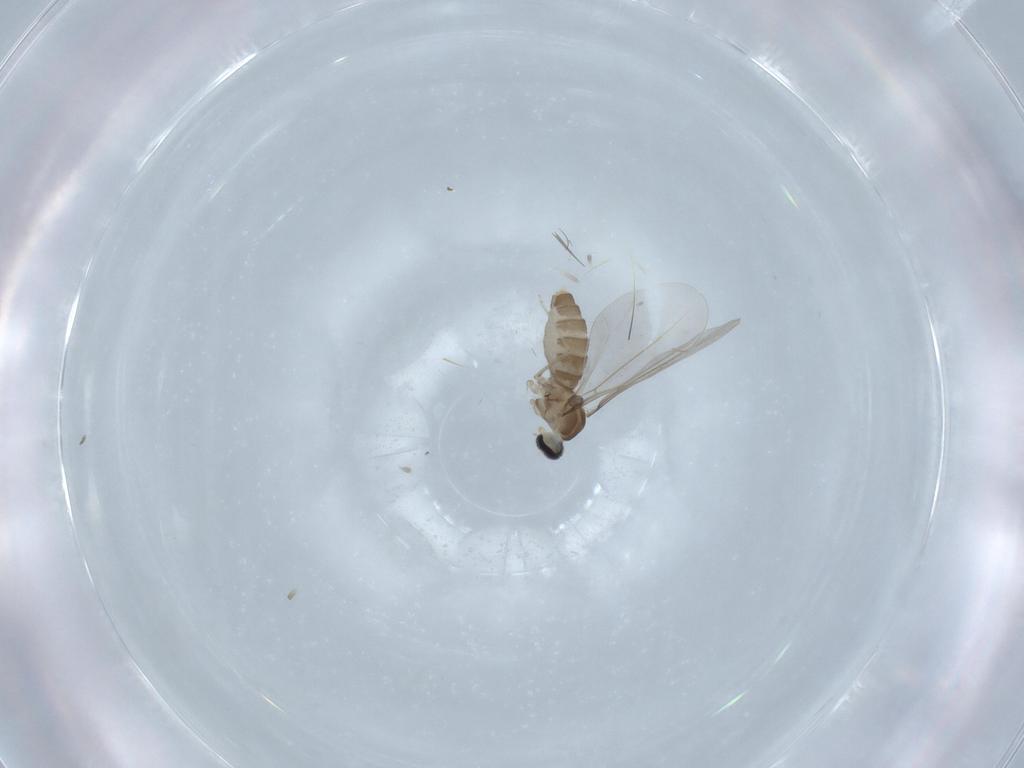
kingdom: Animalia
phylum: Arthropoda
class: Insecta
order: Diptera
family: Cecidomyiidae
